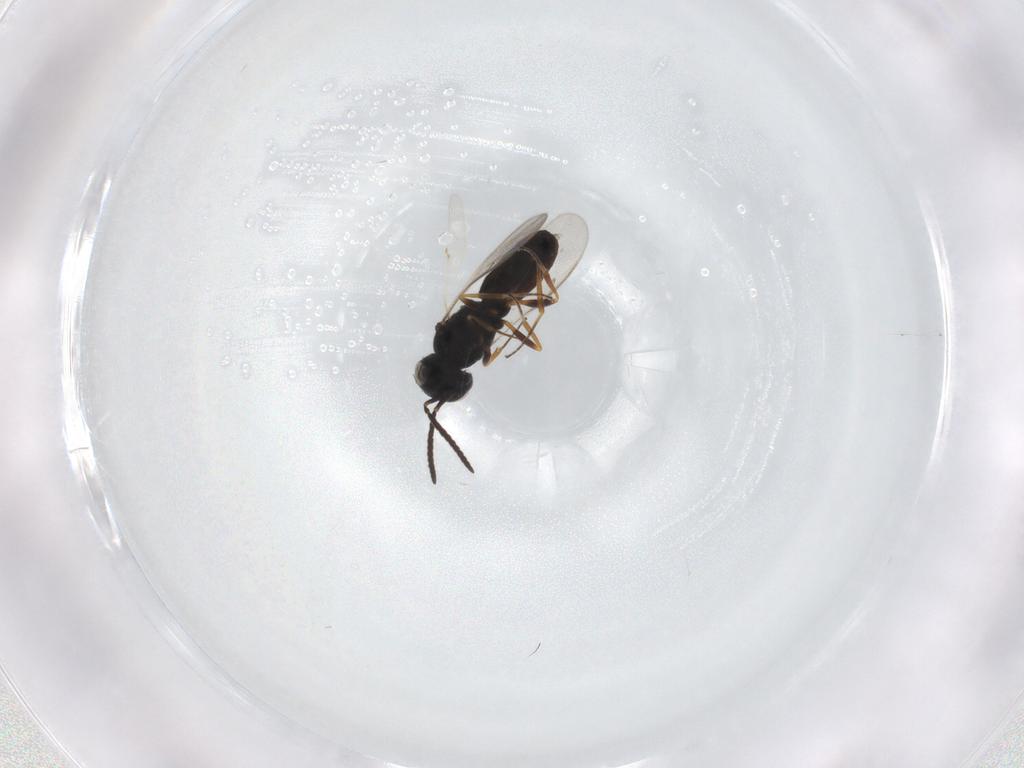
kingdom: Animalia
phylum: Arthropoda
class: Insecta
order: Hymenoptera
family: Scelionidae
